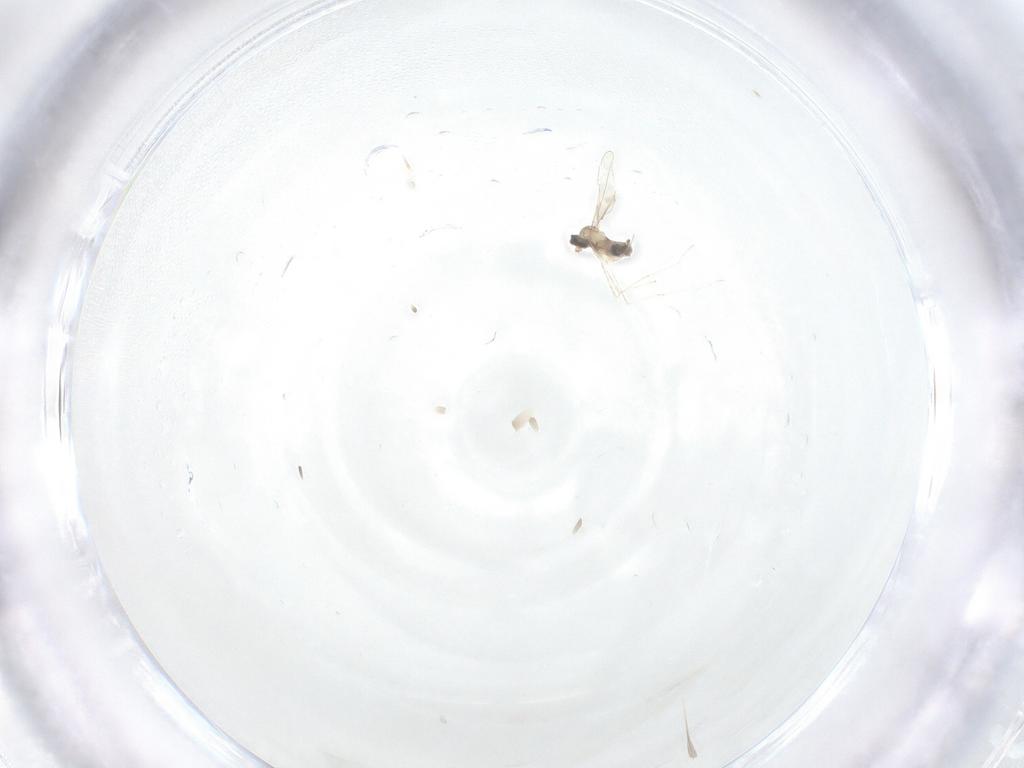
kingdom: Animalia
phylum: Arthropoda
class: Insecta
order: Diptera
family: Cecidomyiidae
